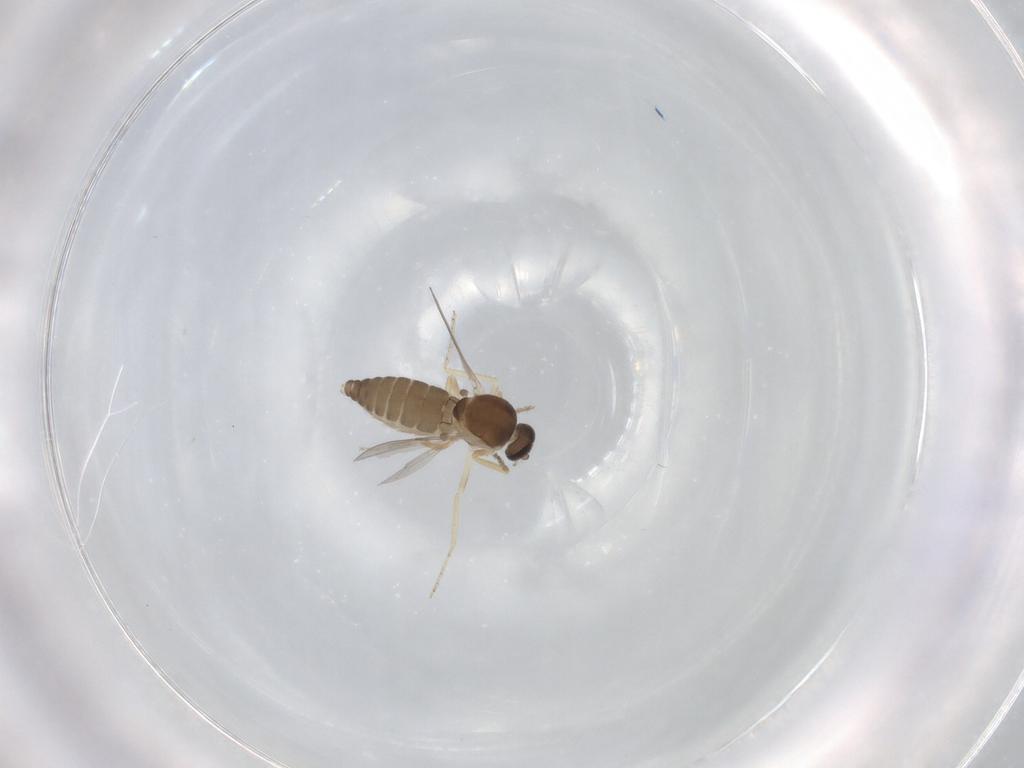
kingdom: Animalia
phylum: Arthropoda
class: Insecta
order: Diptera
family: Ceratopogonidae
